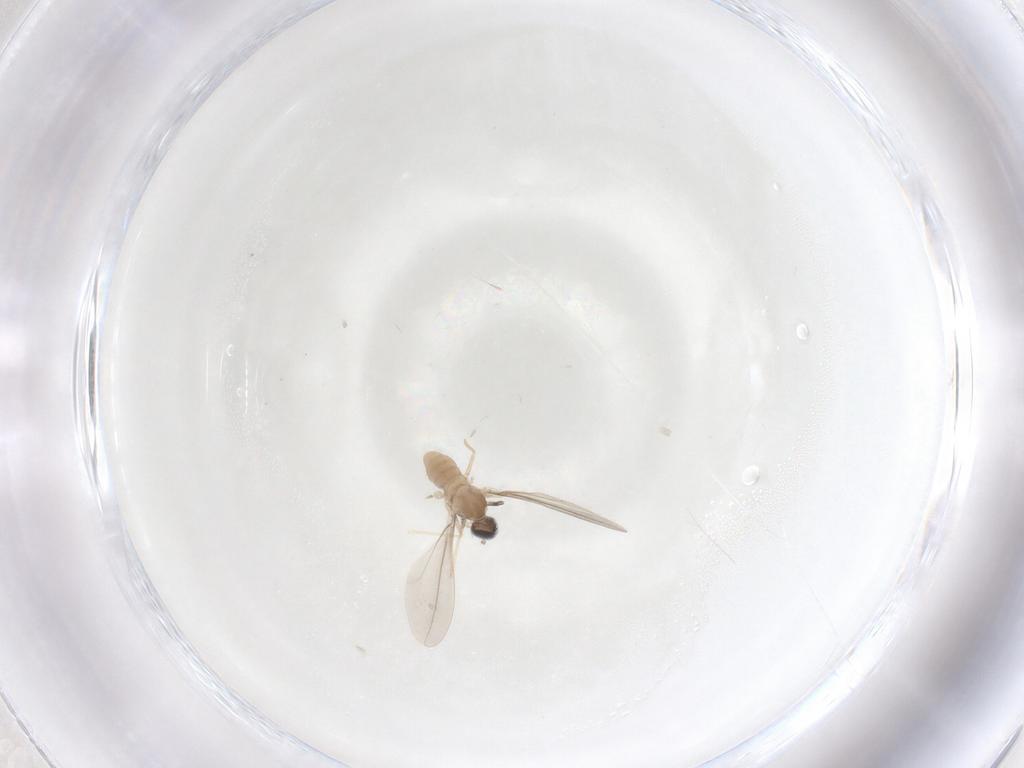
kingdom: Animalia
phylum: Arthropoda
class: Insecta
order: Diptera
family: Cecidomyiidae
